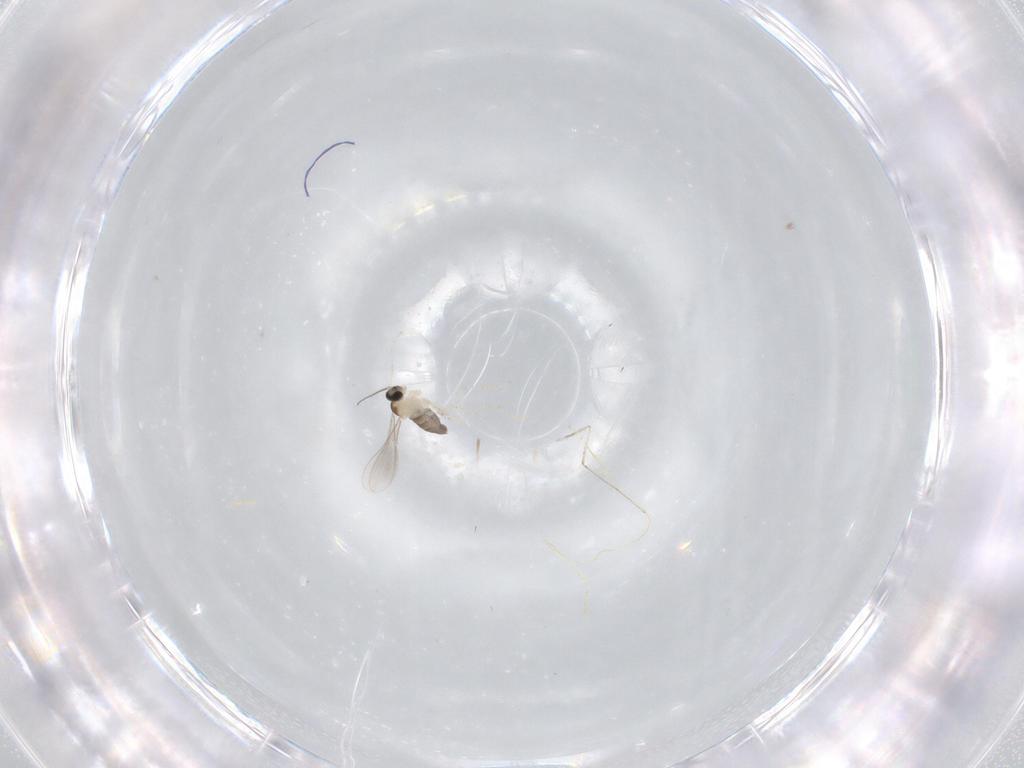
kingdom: Animalia
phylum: Arthropoda
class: Insecta
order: Diptera
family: Cecidomyiidae
